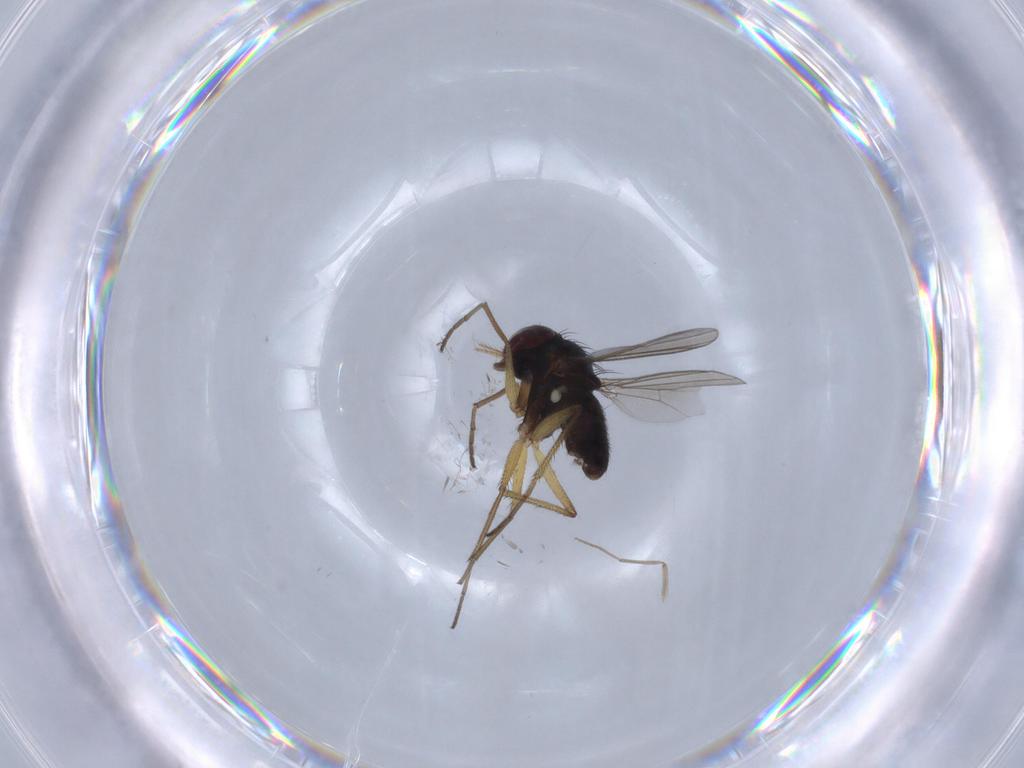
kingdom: Animalia
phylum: Arthropoda
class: Insecta
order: Diptera
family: Dolichopodidae
